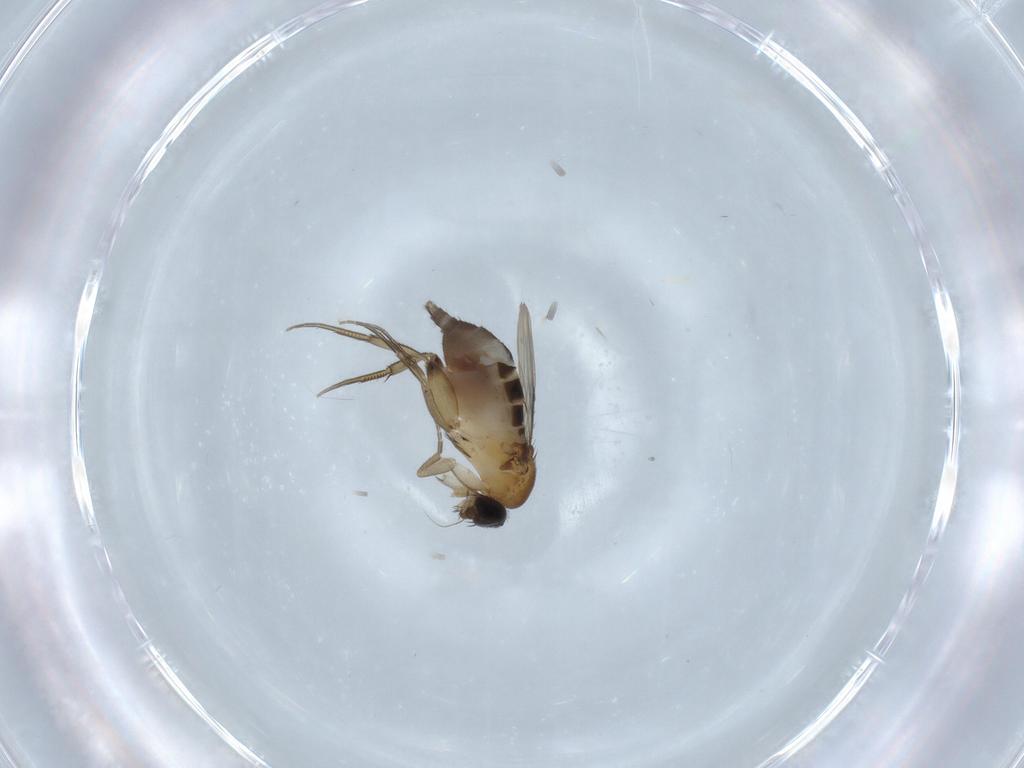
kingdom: Animalia
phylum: Arthropoda
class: Insecta
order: Diptera
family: Phoridae
